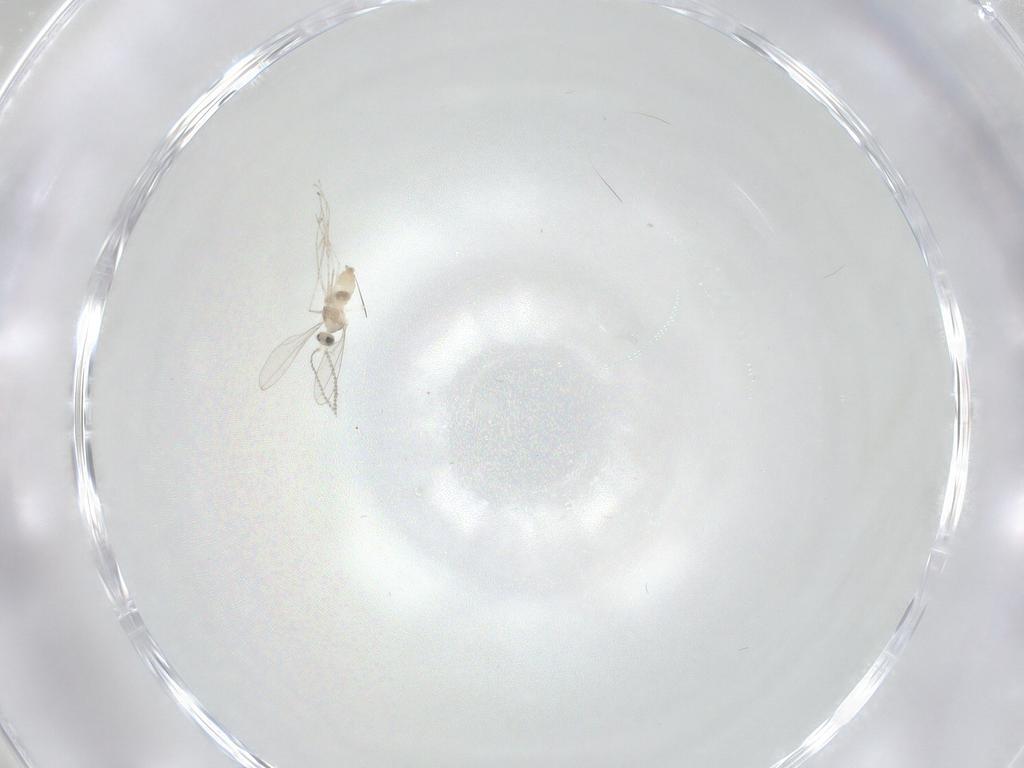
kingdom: Animalia
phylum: Arthropoda
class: Insecta
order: Diptera
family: Cecidomyiidae
